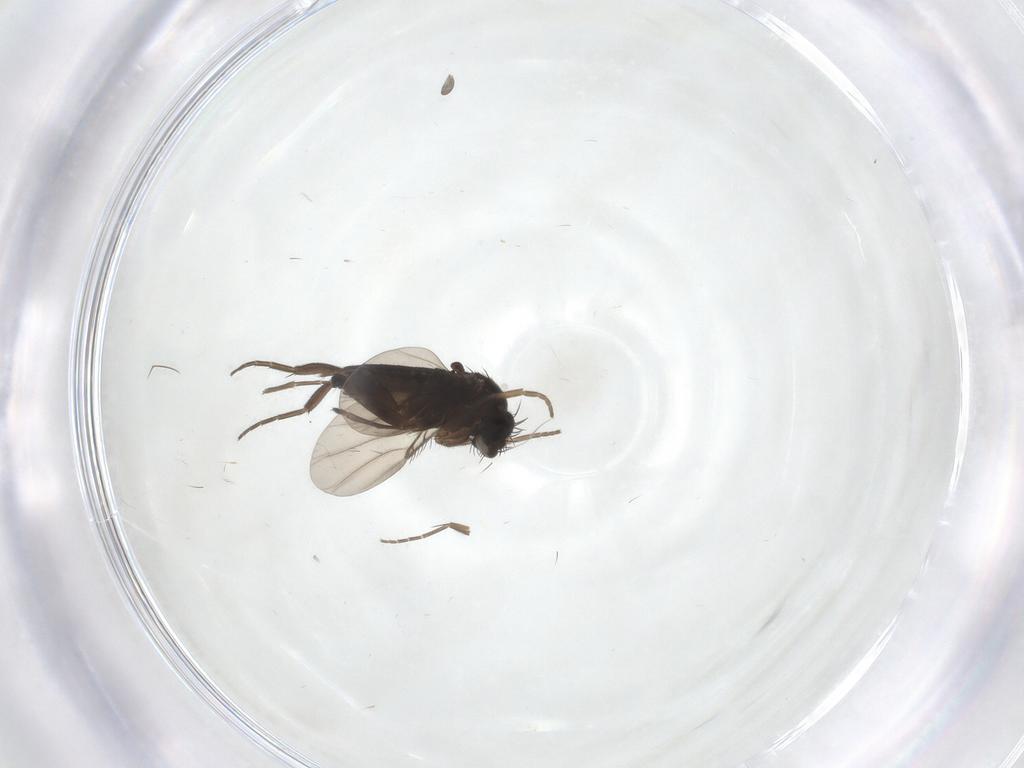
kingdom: Animalia
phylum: Arthropoda
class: Insecta
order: Diptera
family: Phoridae
